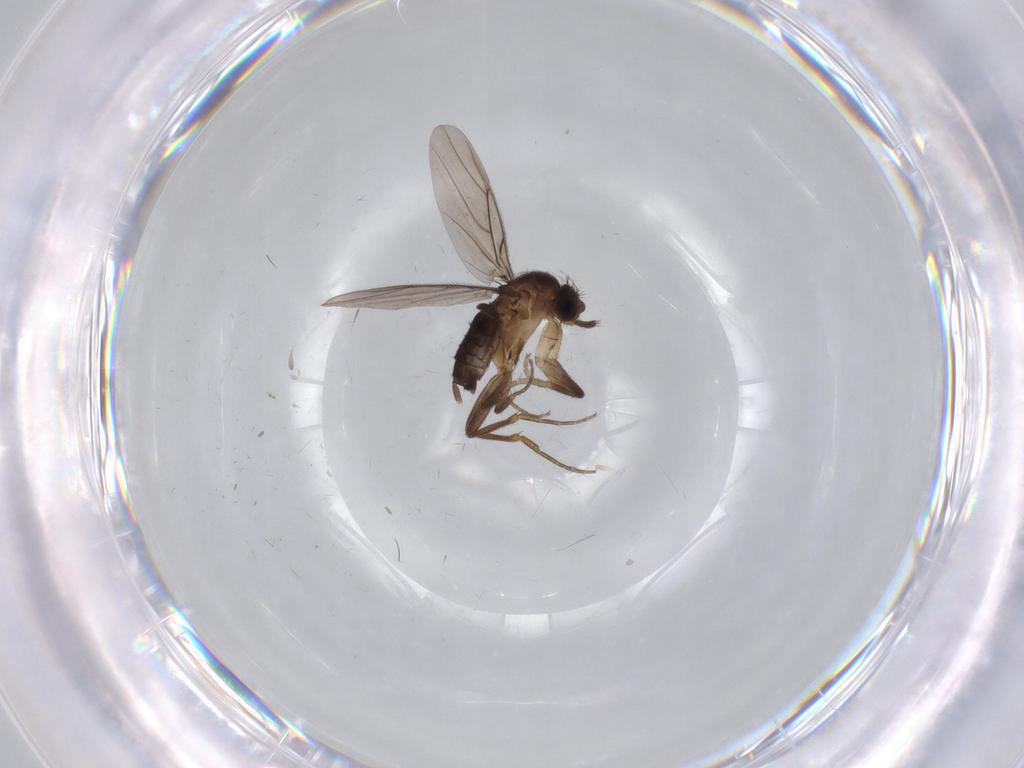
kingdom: Animalia
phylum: Arthropoda
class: Insecta
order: Diptera
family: Chironomidae
